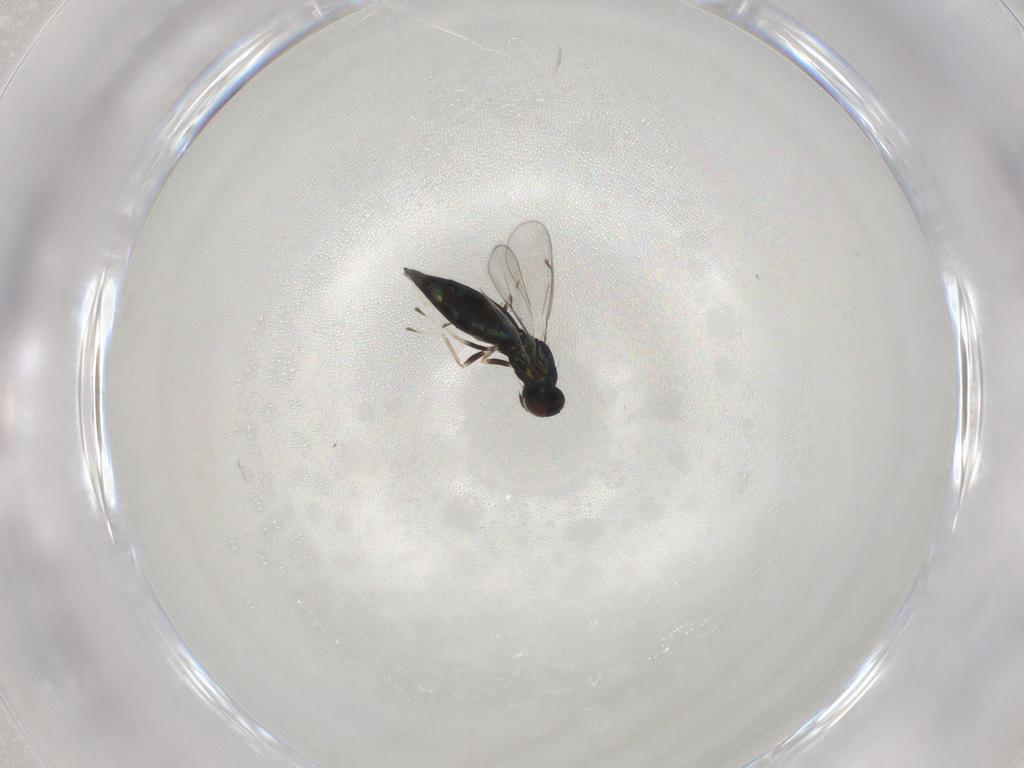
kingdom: Animalia
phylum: Arthropoda
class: Insecta
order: Hymenoptera
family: Eulophidae
